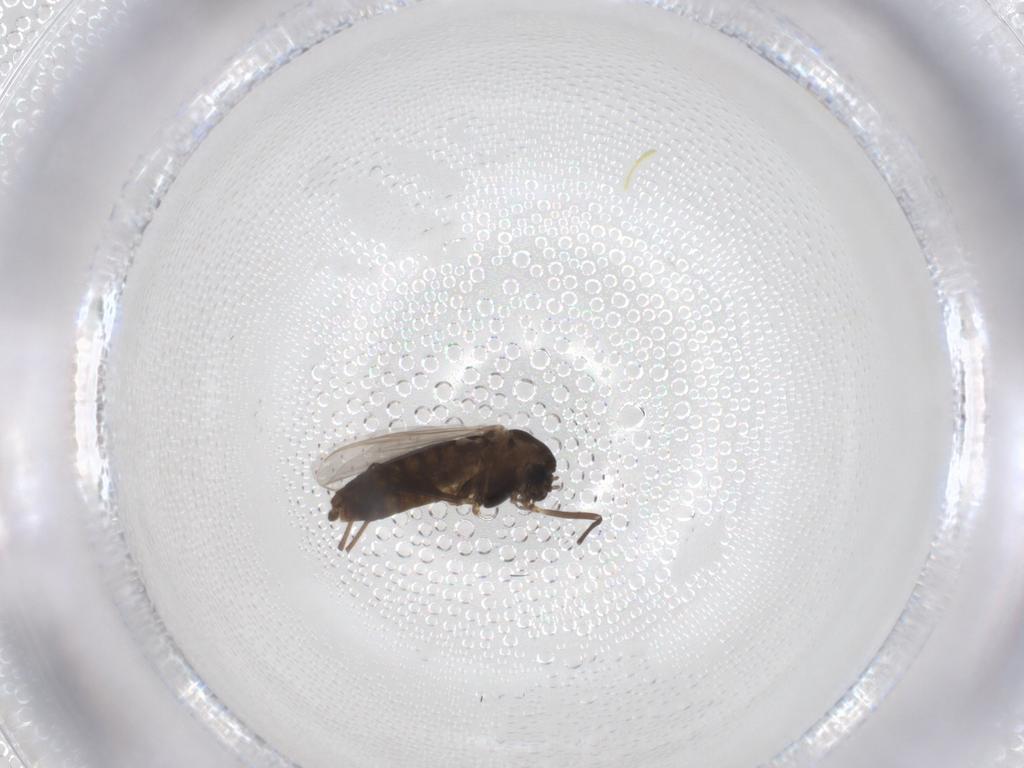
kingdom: Animalia
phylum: Arthropoda
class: Insecta
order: Diptera
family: Chironomidae
